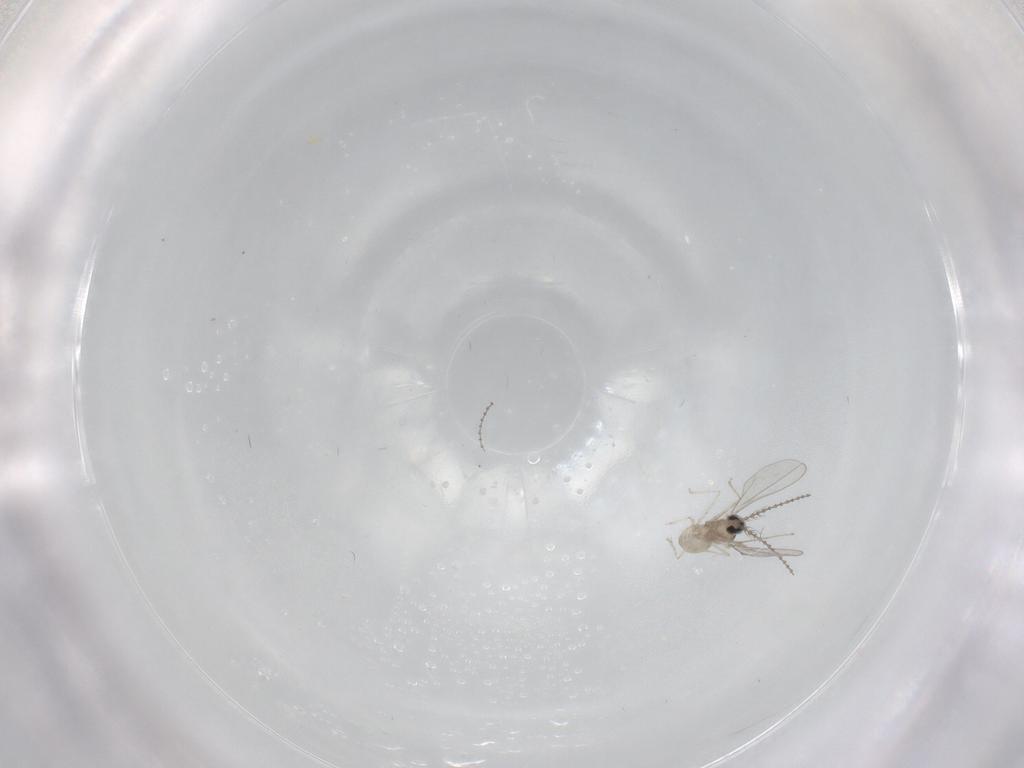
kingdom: Animalia
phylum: Arthropoda
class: Insecta
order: Diptera
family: Cecidomyiidae
